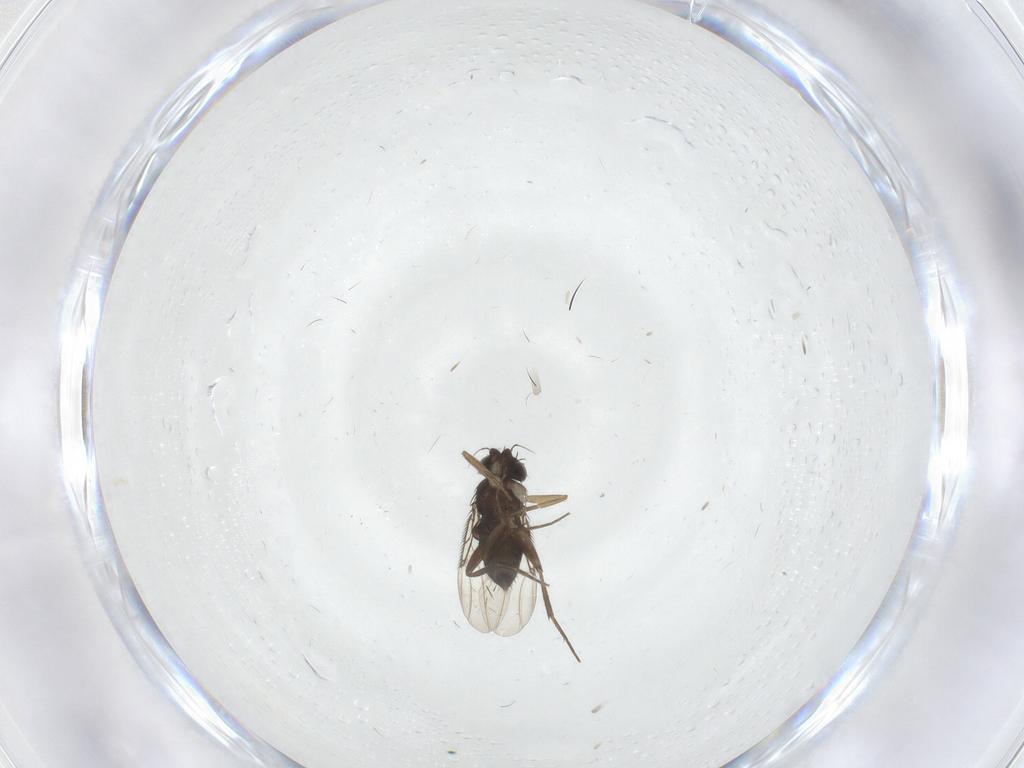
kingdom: Animalia
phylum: Arthropoda
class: Insecta
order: Diptera
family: Phoridae
